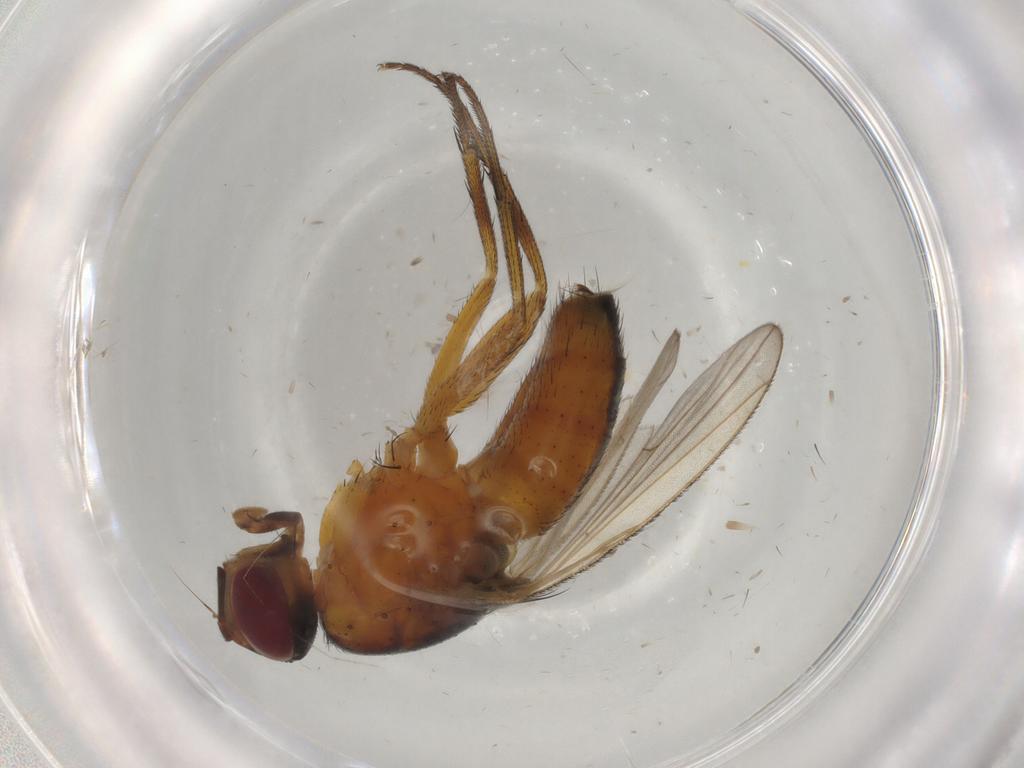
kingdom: Animalia
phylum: Arthropoda
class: Insecta
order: Diptera
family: Muscidae
